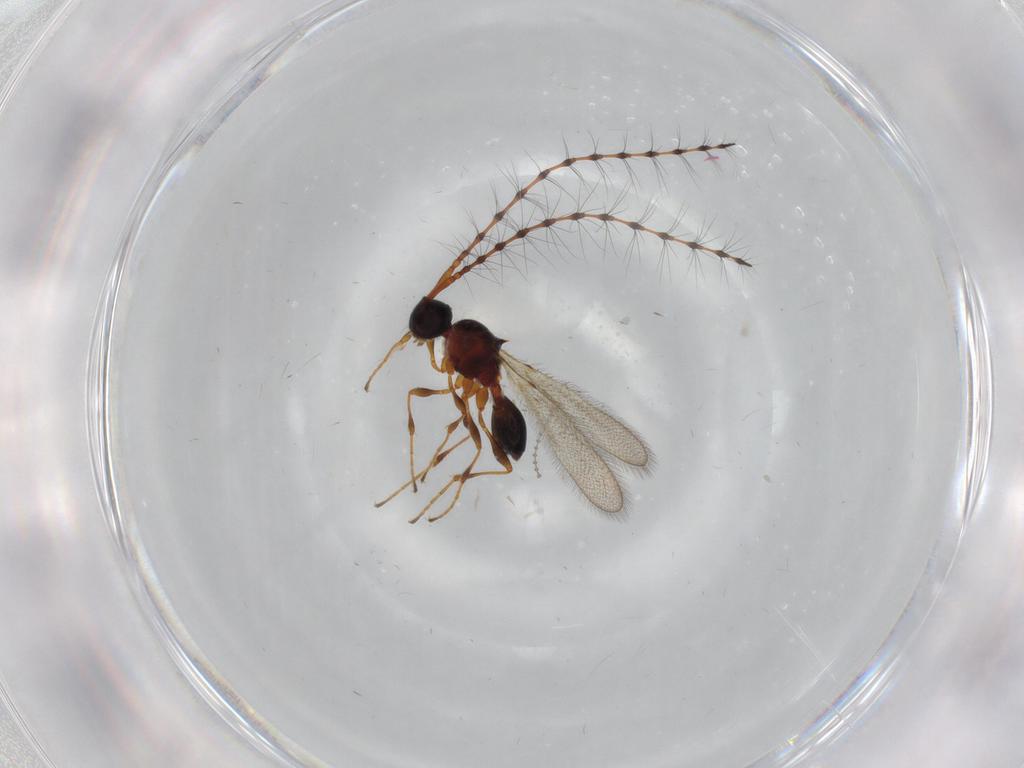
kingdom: Animalia
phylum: Arthropoda
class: Insecta
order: Hymenoptera
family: Diapriidae
